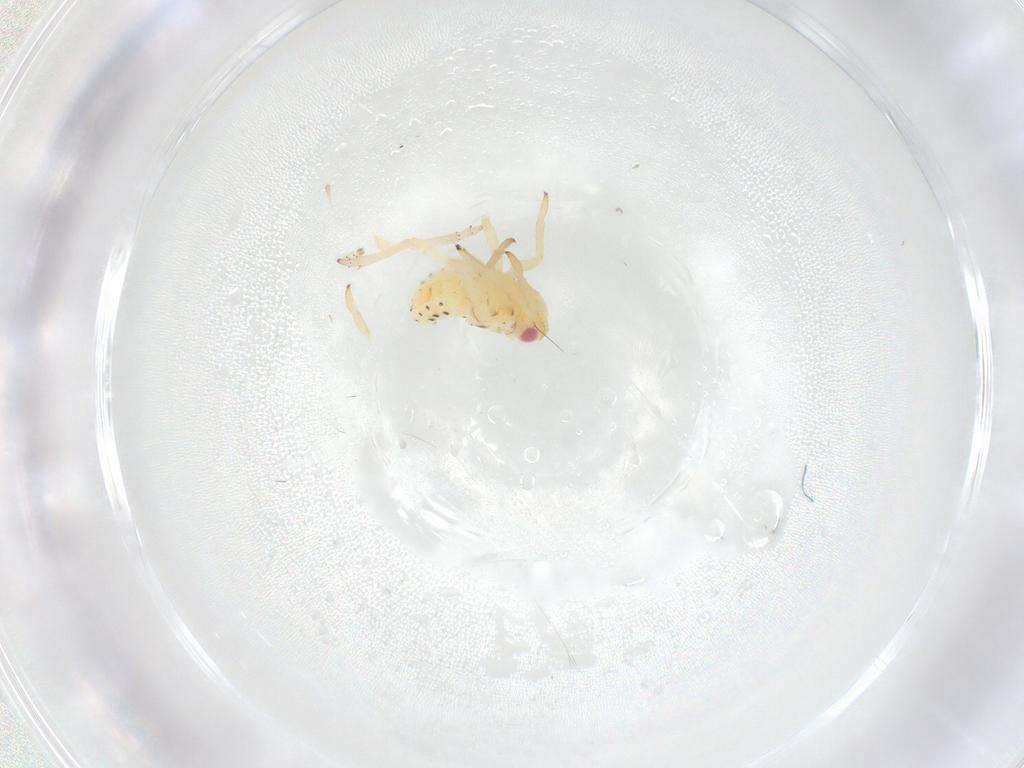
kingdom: Animalia
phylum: Arthropoda
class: Insecta
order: Hemiptera
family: Tropiduchidae
